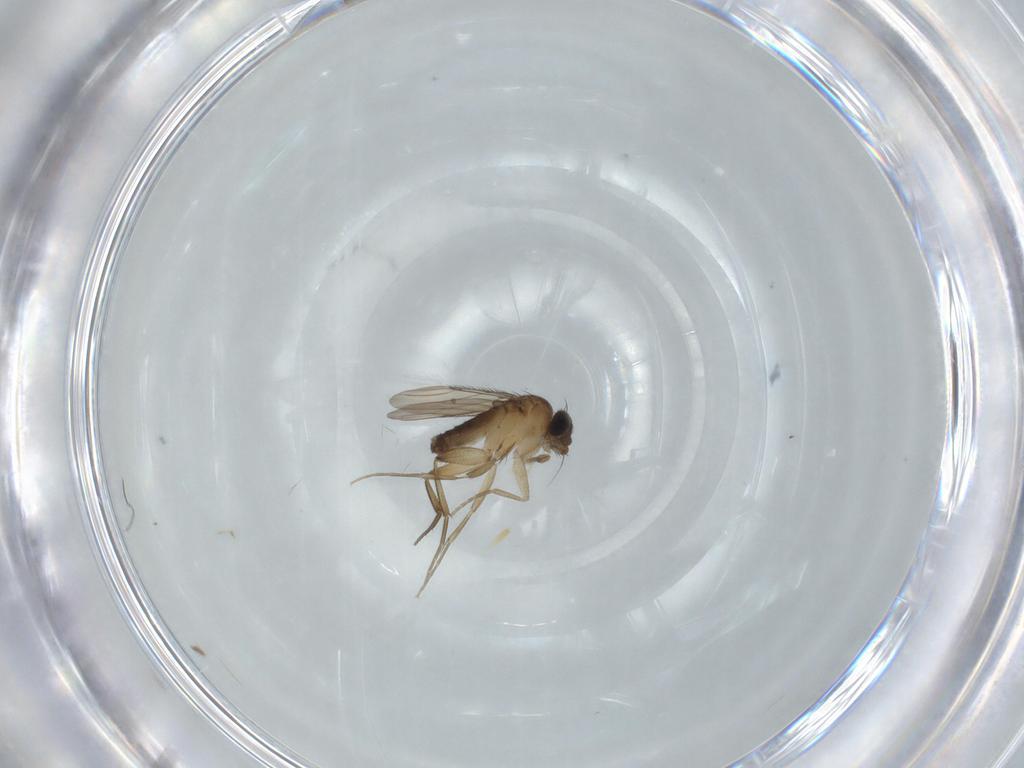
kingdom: Animalia
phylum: Arthropoda
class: Insecta
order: Diptera
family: Phoridae
